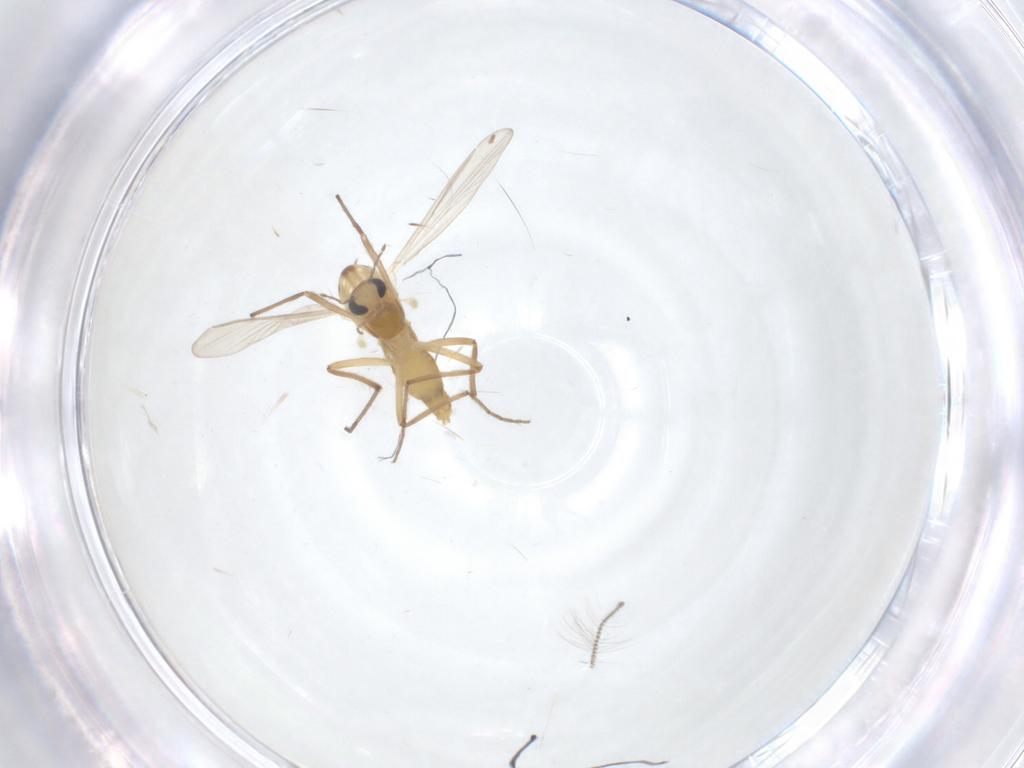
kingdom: Animalia
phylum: Arthropoda
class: Insecta
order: Diptera
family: Chironomidae
